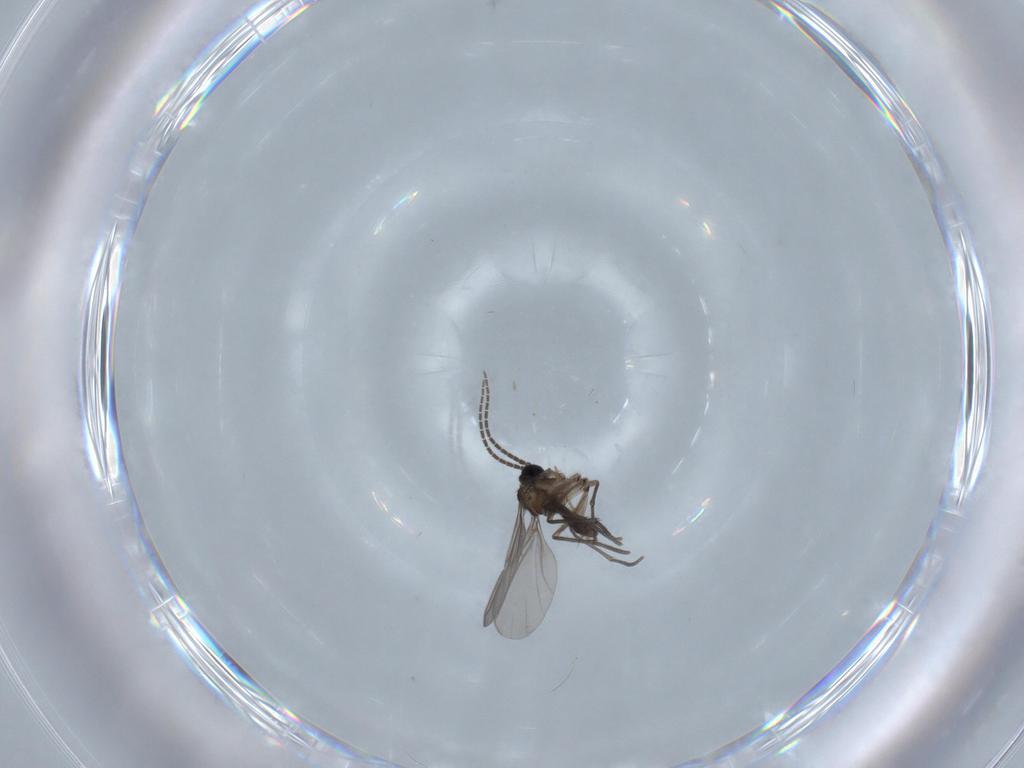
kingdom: Animalia
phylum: Arthropoda
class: Insecta
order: Diptera
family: Sciaridae
